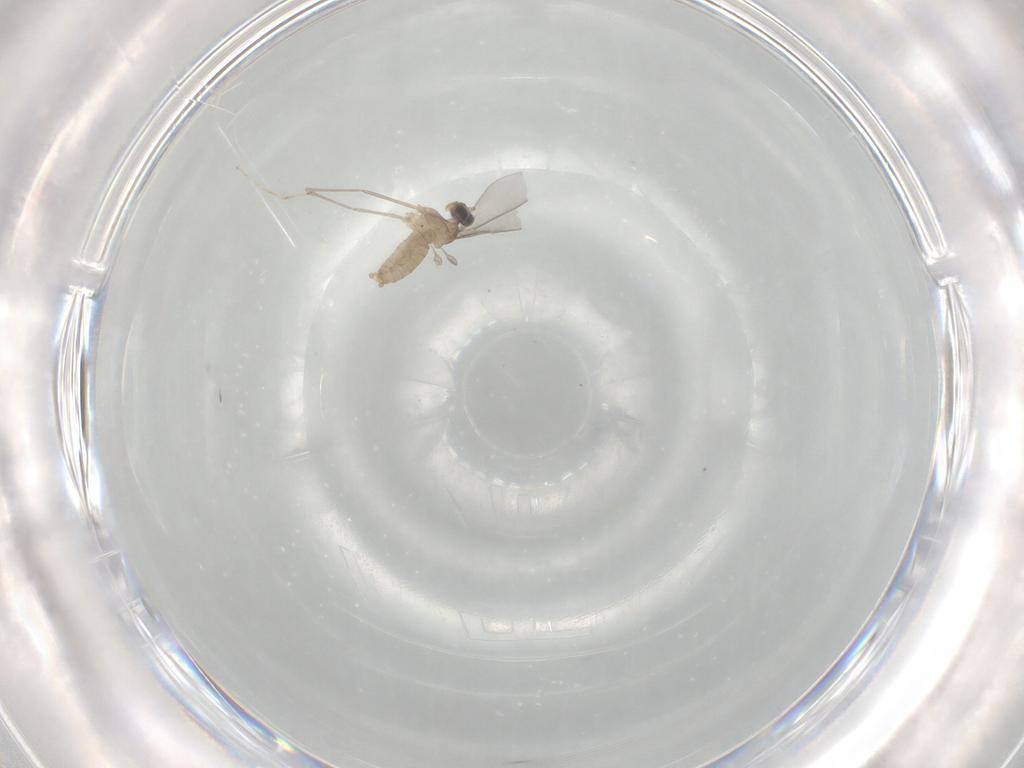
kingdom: Animalia
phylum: Arthropoda
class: Insecta
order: Diptera
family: Cecidomyiidae
